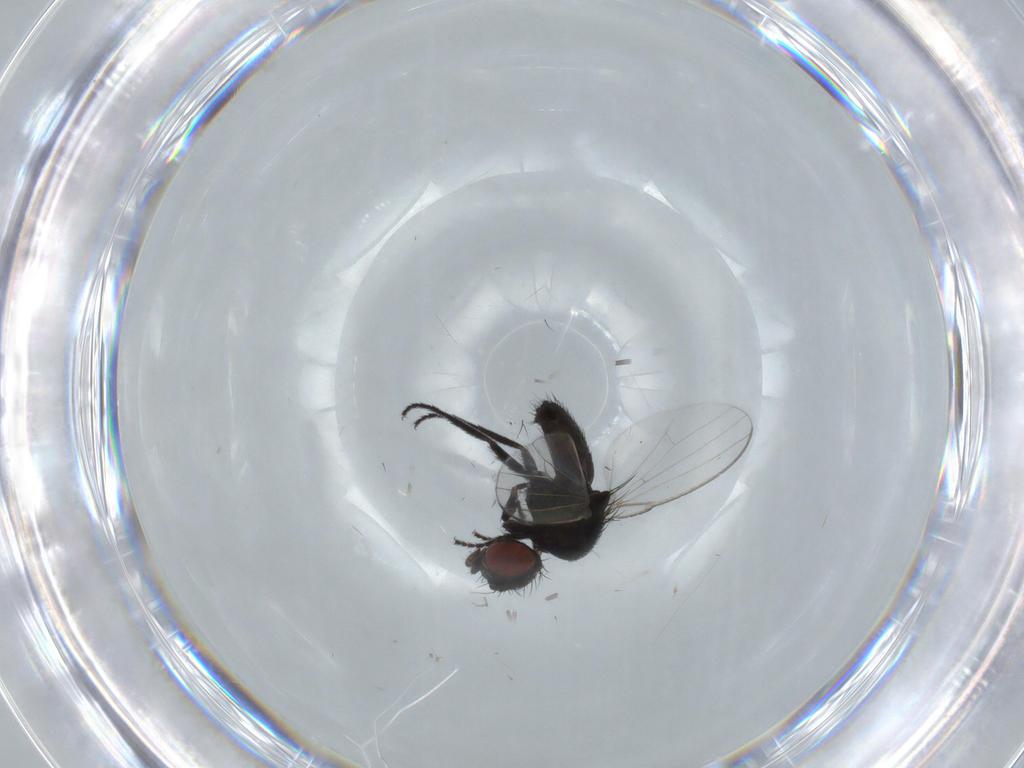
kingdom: Animalia
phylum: Arthropoda
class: Insecta
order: Diptera
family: Milichiidae
